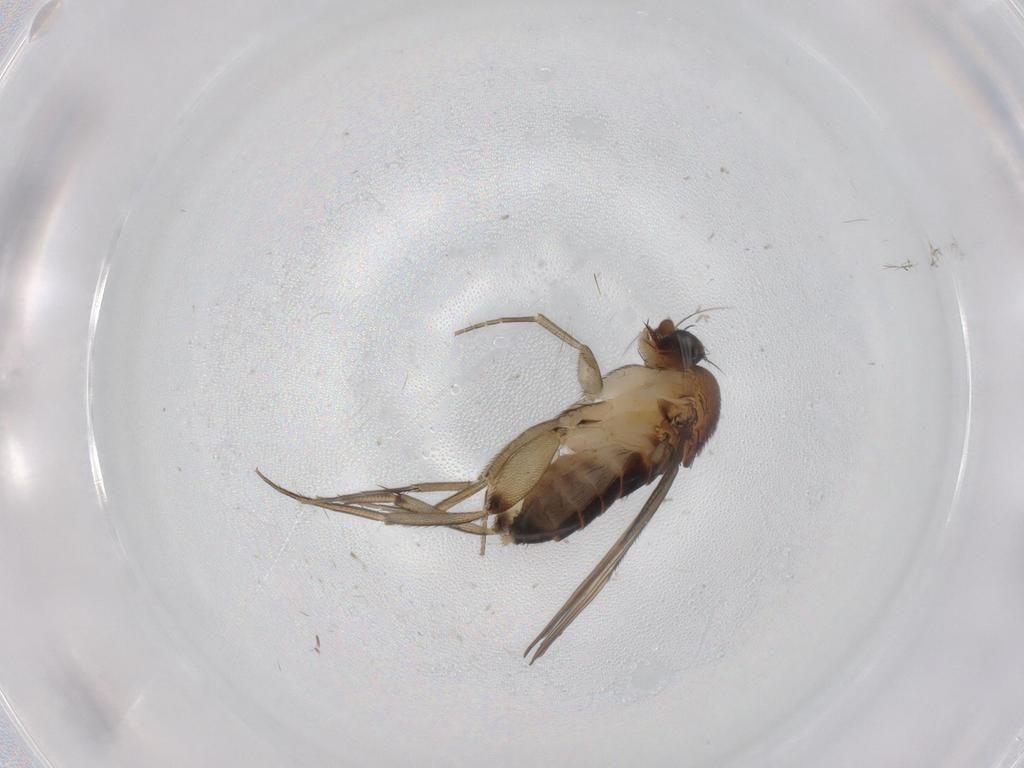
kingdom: Animalia
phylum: Arthropoda
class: Insecta
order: Diptera
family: Phoridae
